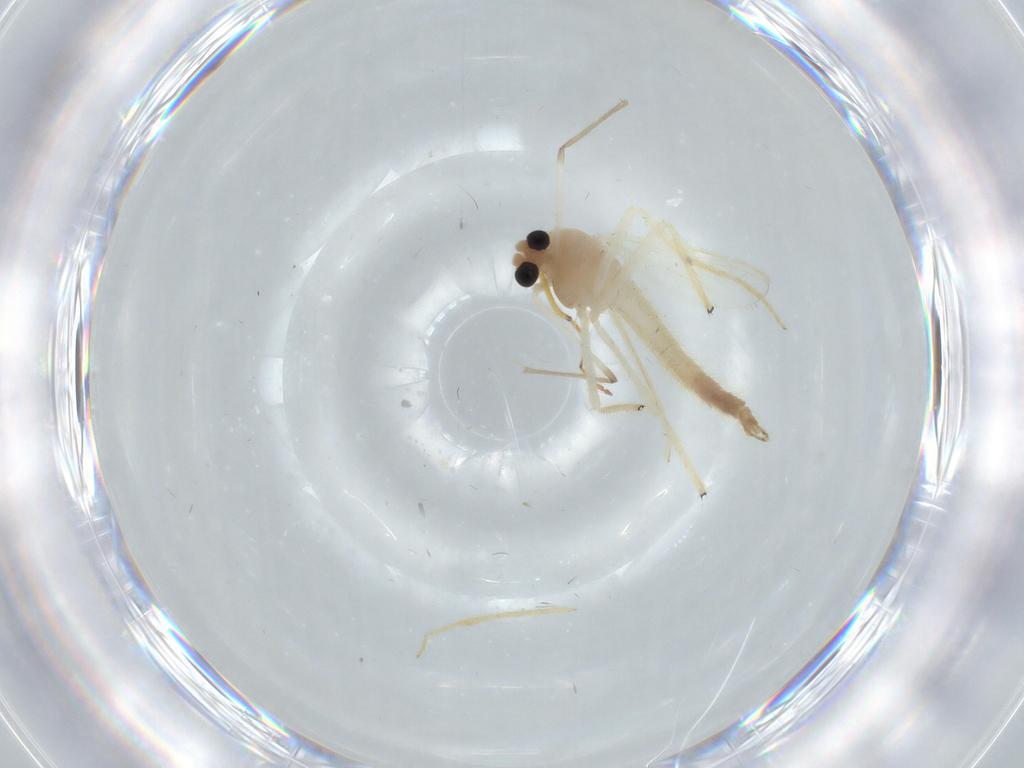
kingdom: Animalia
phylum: Arthropoda
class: Insecta
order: Diptera
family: Chironomidae
